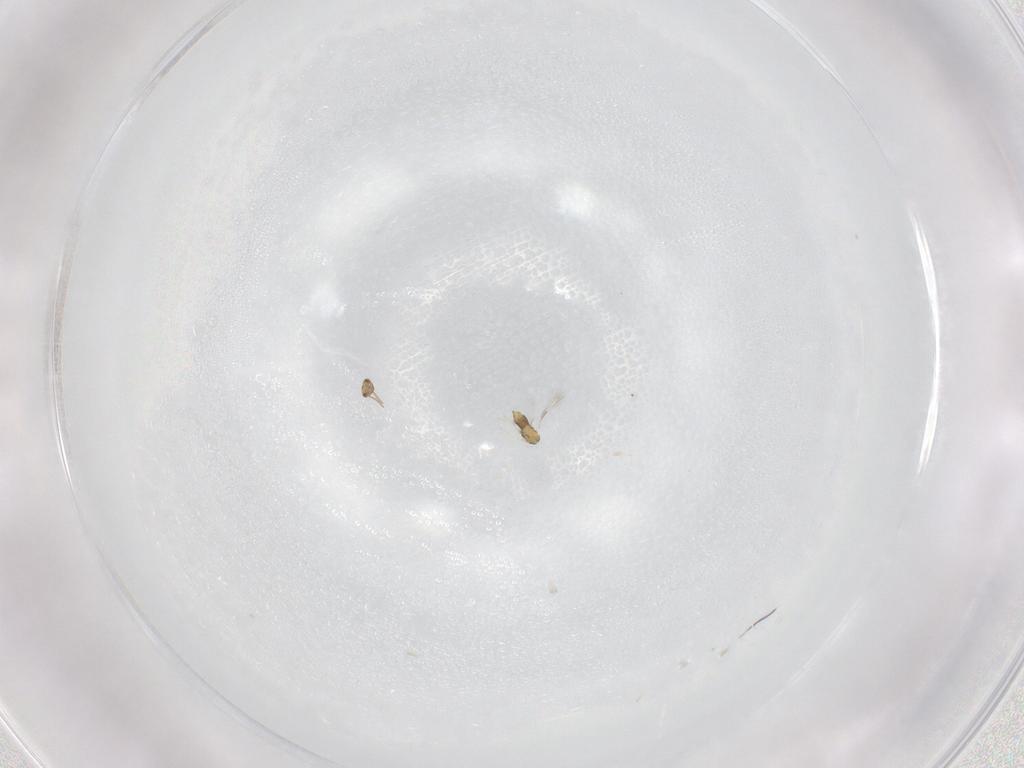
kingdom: Animalia
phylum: Arthropoda
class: Insecta
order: Hymenoptera
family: Aphelinidae
